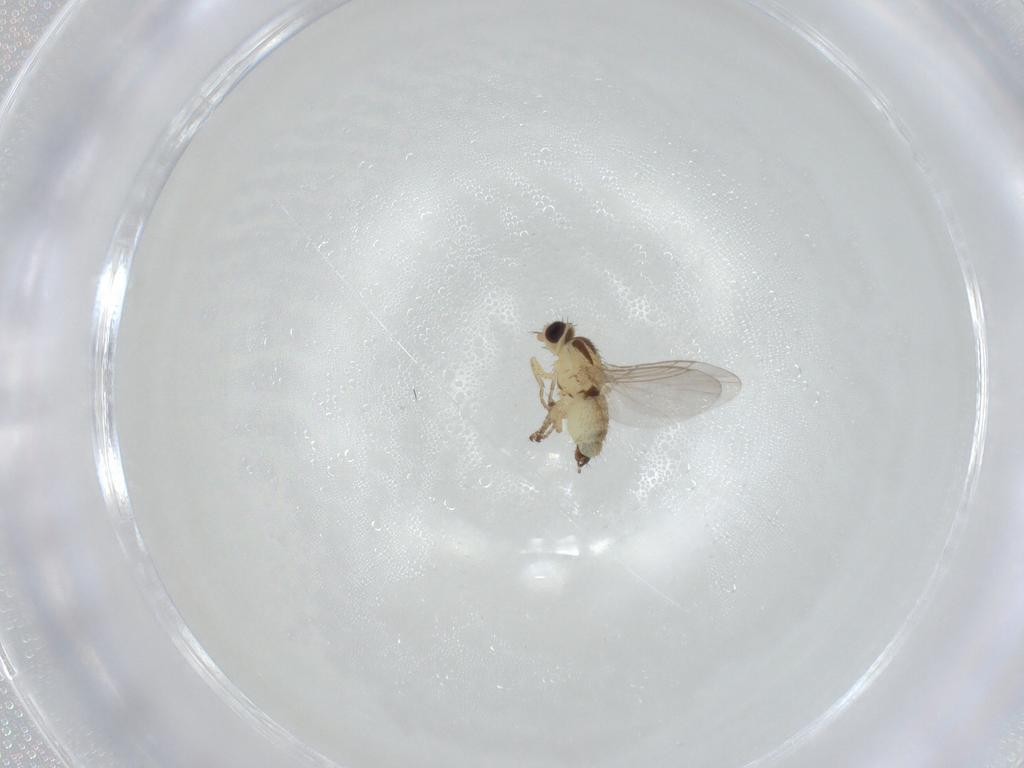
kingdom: Animalia
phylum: Arthropoda
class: Insecta
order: Diptera
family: Agromyzidae
